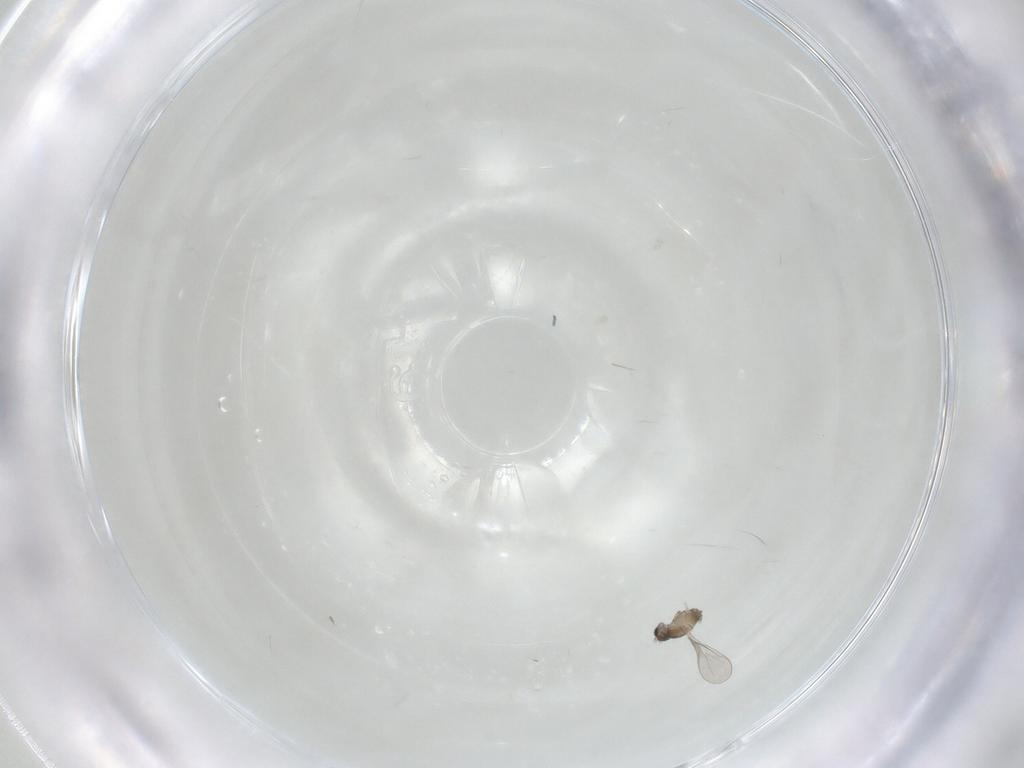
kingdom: Animalia
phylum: Arthropoda
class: Insecta
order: Diptera
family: Cecidomyiidae
